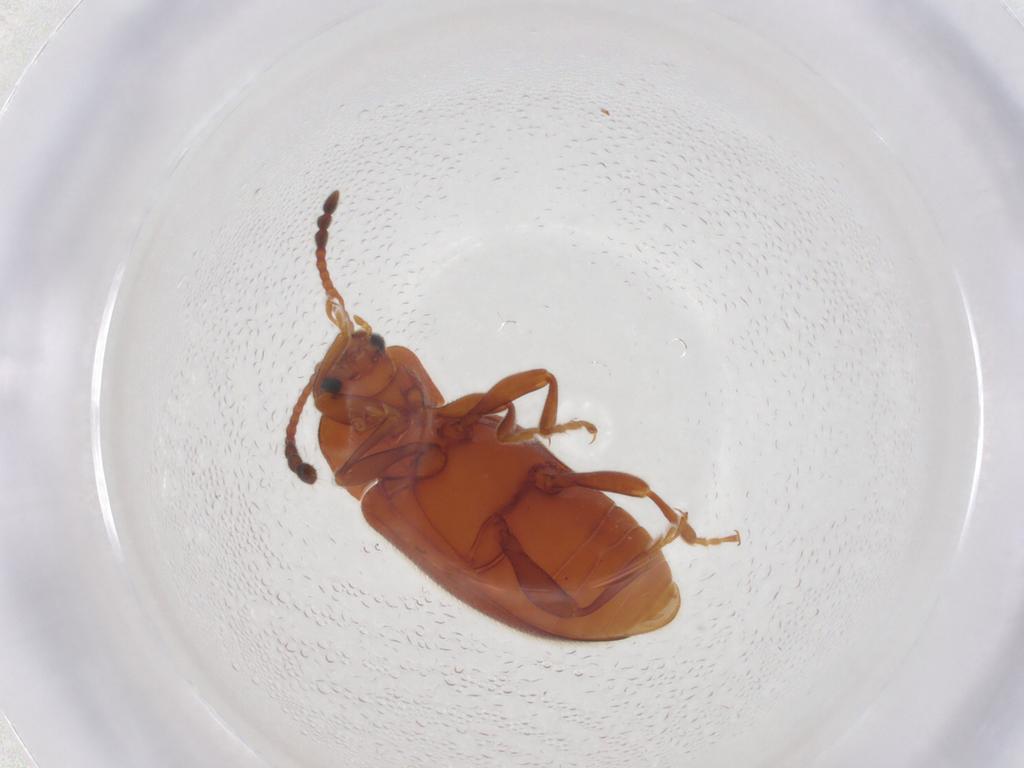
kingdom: Animalia
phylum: Arthropoda
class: Insecta
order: Coleoptera
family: Endomychidae
